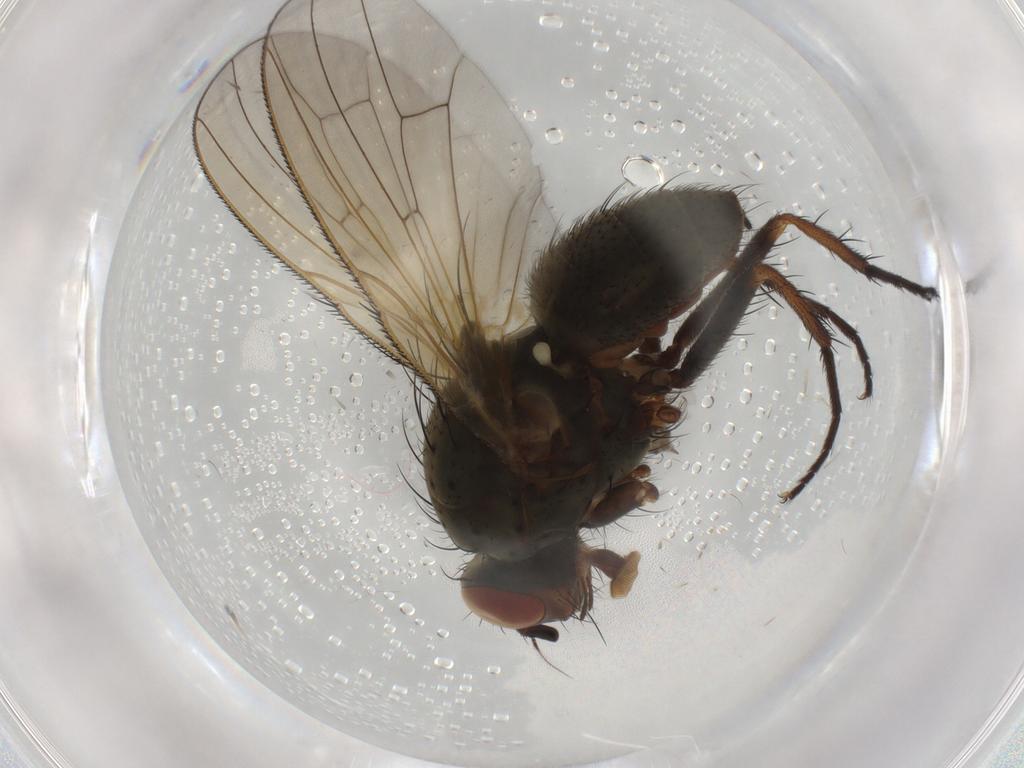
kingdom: Animalia
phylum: Arthropoda
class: Insecta
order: Diptera
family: Anthomyiidae
